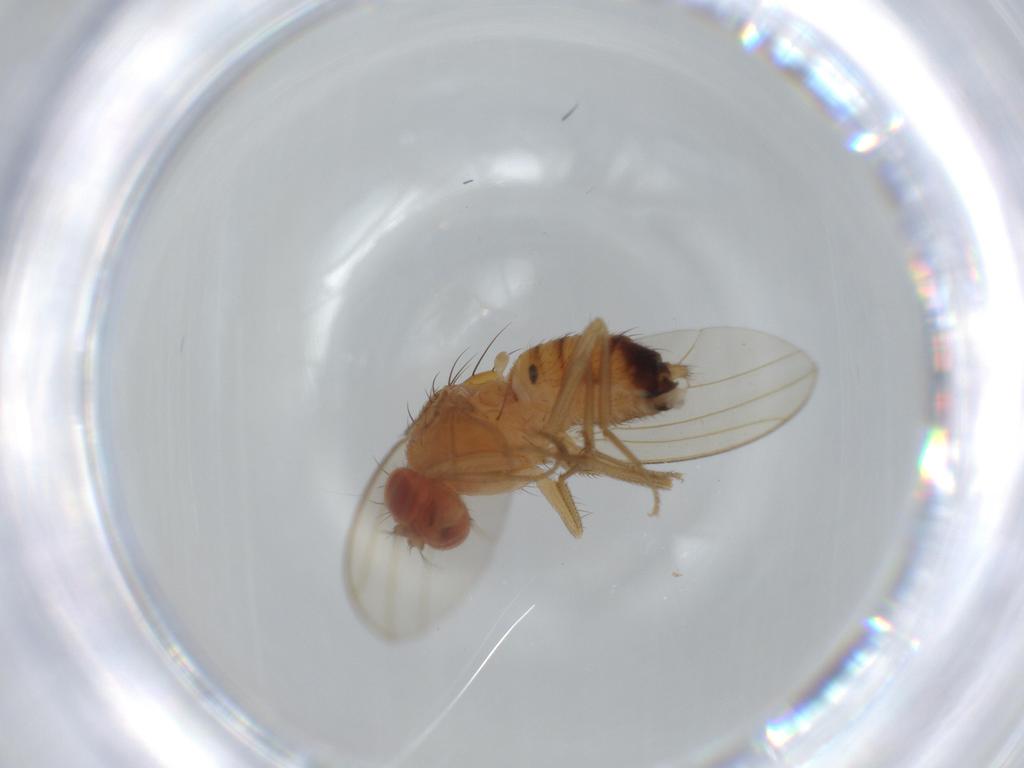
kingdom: Animalia
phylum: Arthropoda
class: Insecta
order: Diptera
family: Drosophilidae
